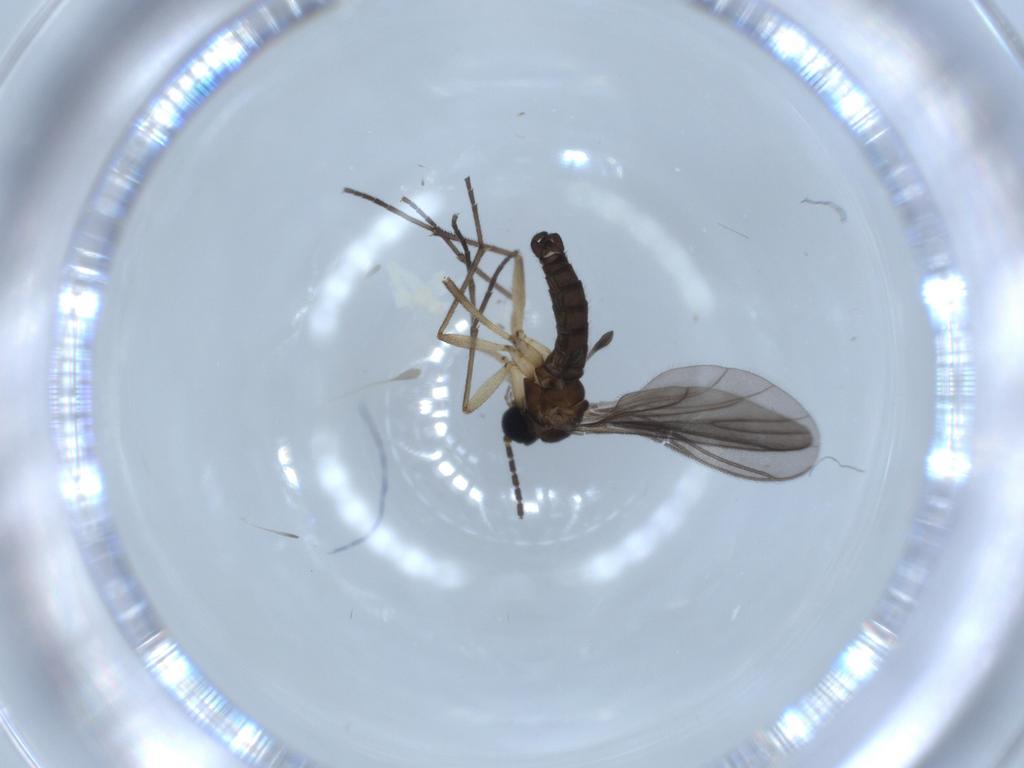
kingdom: Animalia
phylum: Arthropoda
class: Insecta
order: Diptera
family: Sciaridae
